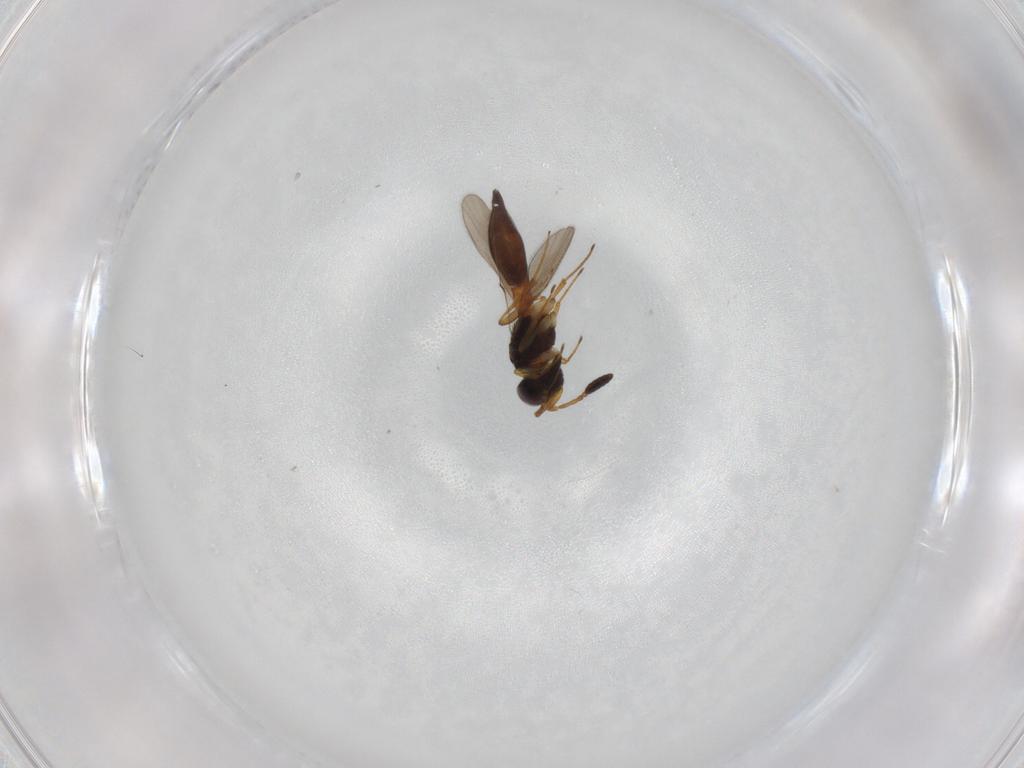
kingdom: Animalia
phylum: Arthropoda
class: Insecta
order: Hymenoptera
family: Scelionidae
